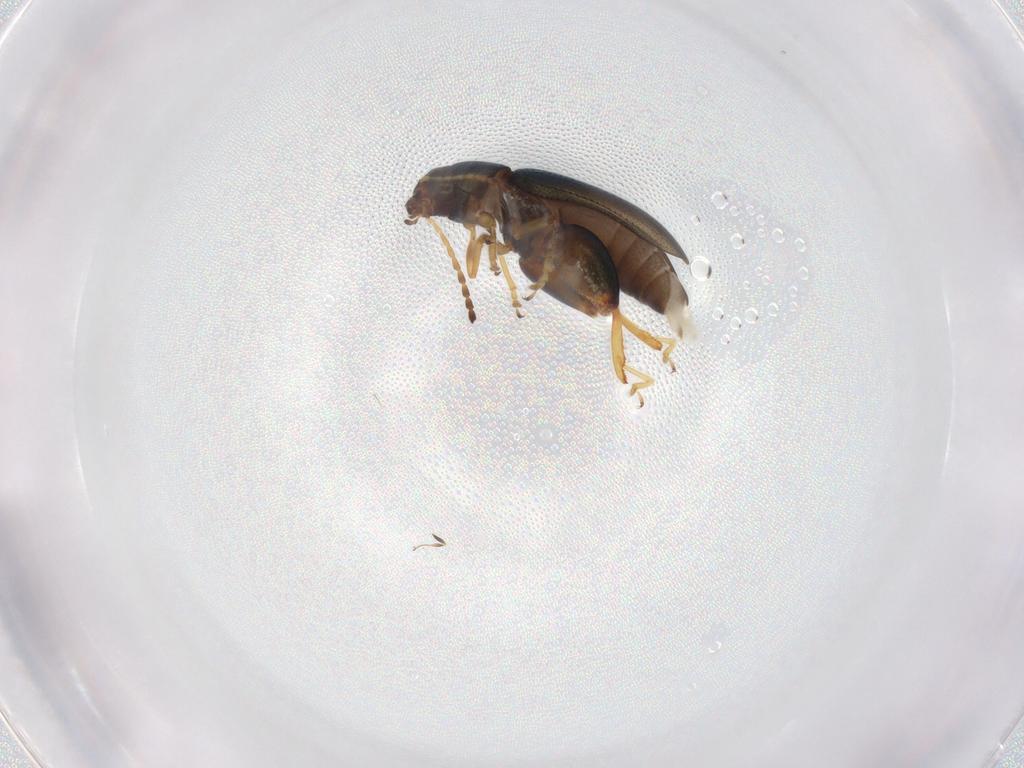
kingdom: Animalia
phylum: Arthropoda
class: Insecta
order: Coleoptera
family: Chrysomelidae
